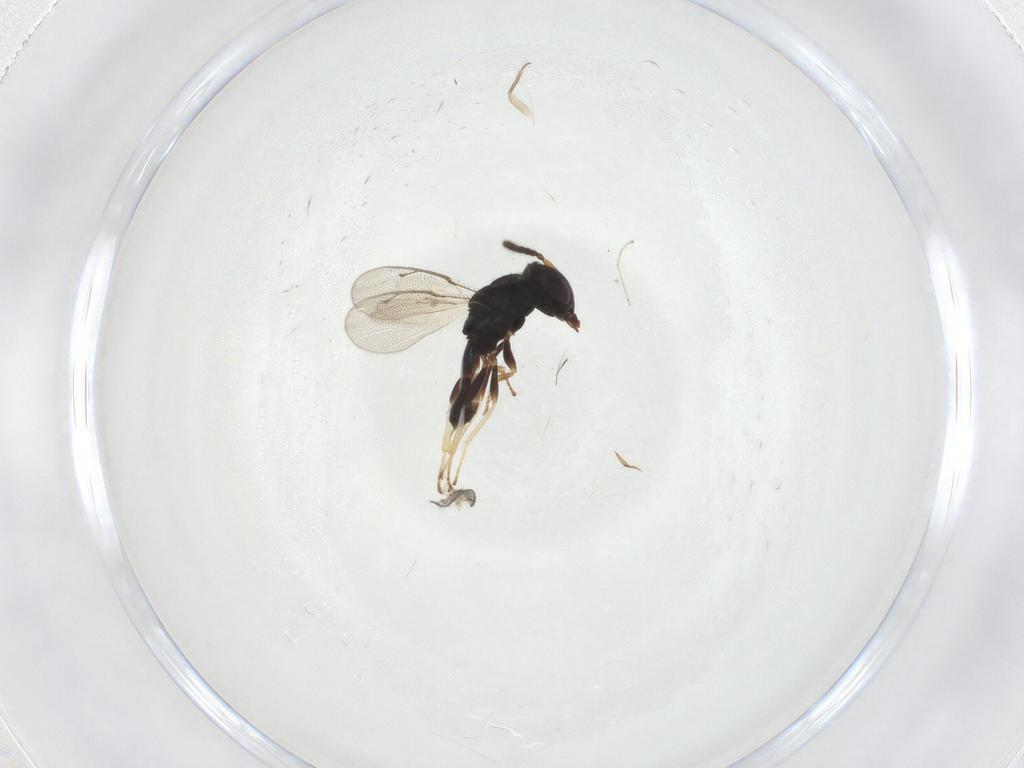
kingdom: Animalia
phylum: Arthropoda
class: Insecta
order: Hymenoptera
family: Pteromalidae
